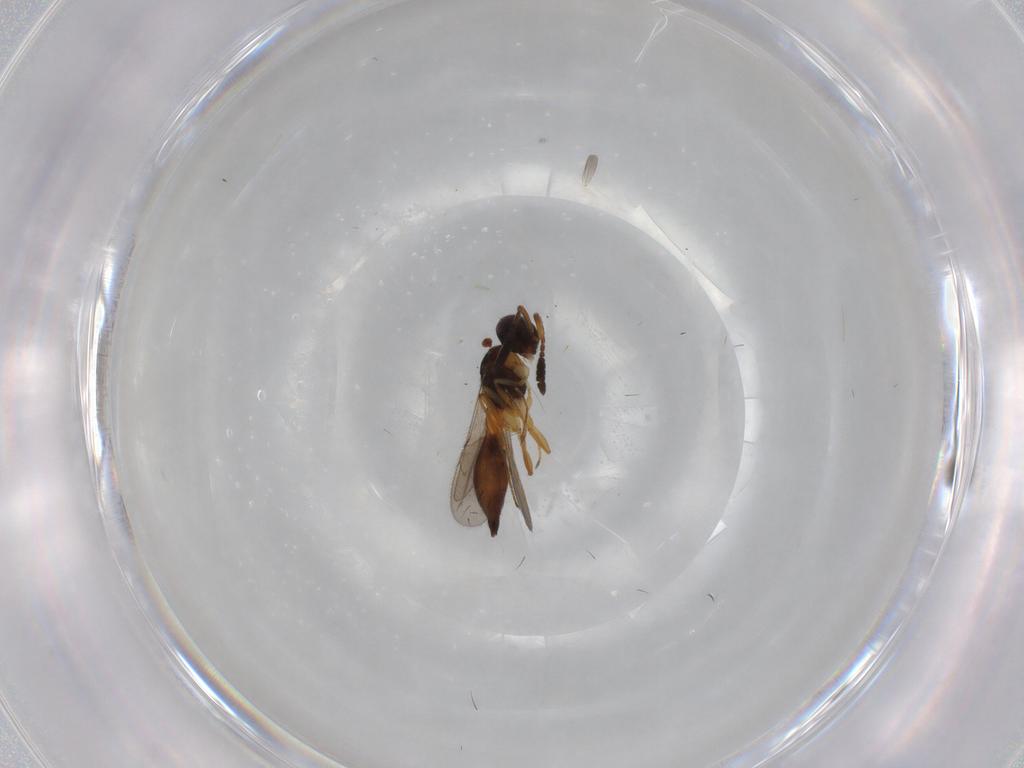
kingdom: Animalia
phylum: Arthropoda
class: Insecta
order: Hymenoptera
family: Scelionidae
